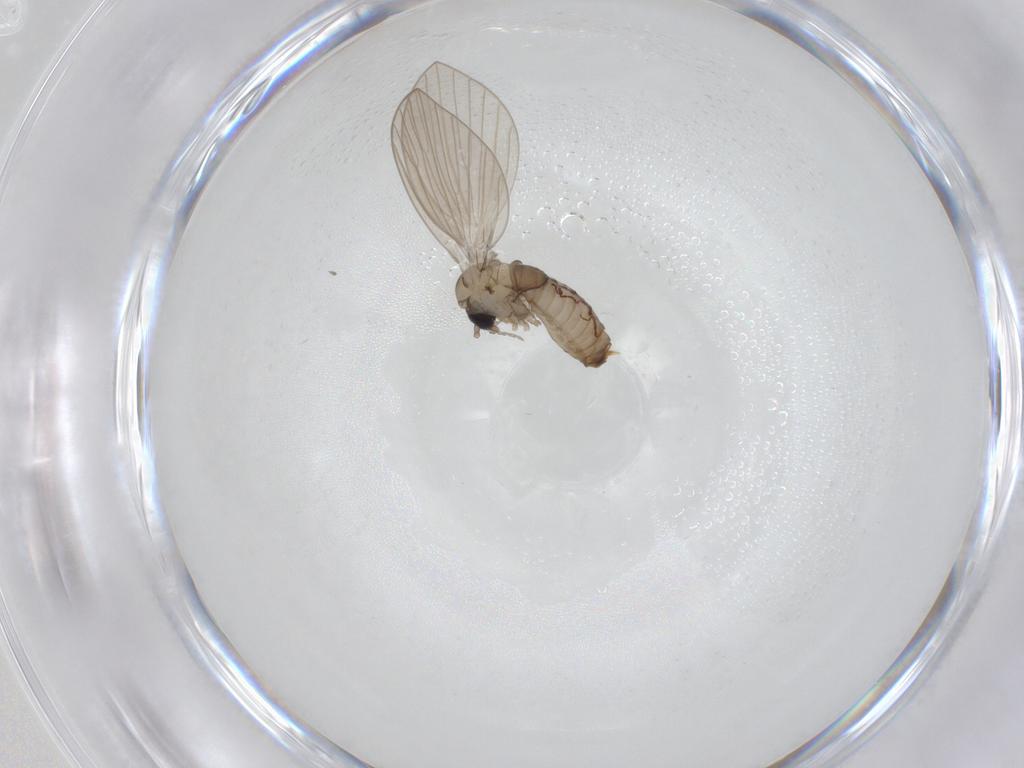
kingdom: Animalia
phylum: Arthropoda
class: Insecta
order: Diptera
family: Psychodidae
